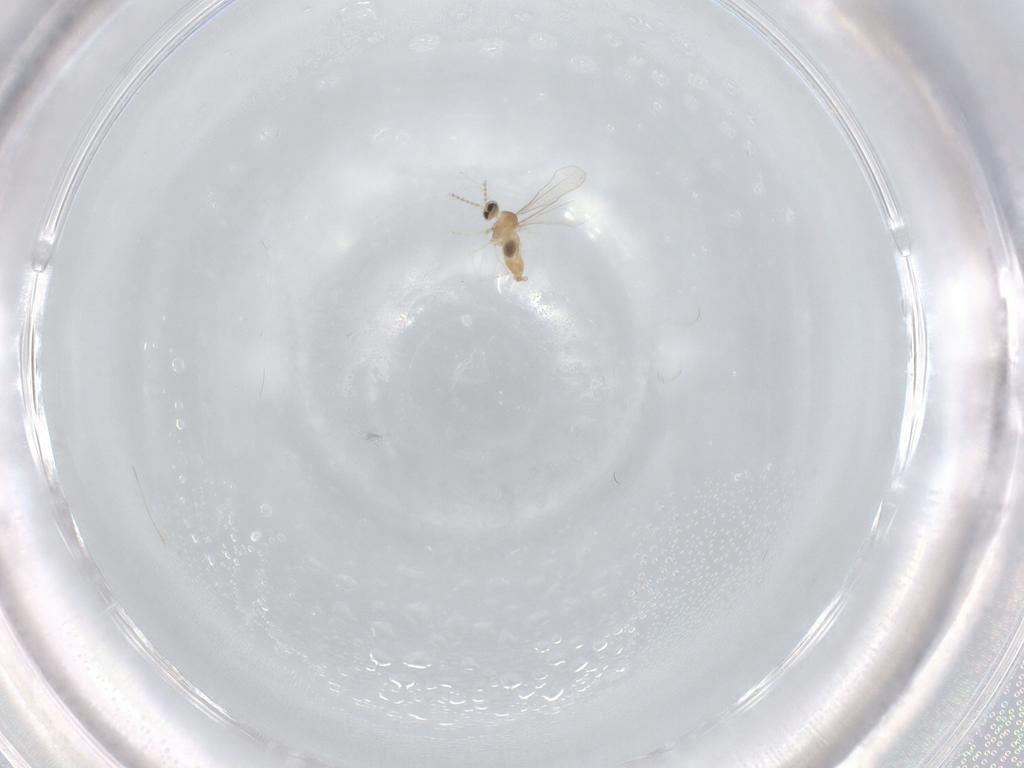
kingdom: Animalia
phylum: Arthropoda
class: Insecta
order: Diptera
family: Cecidomyiidae
